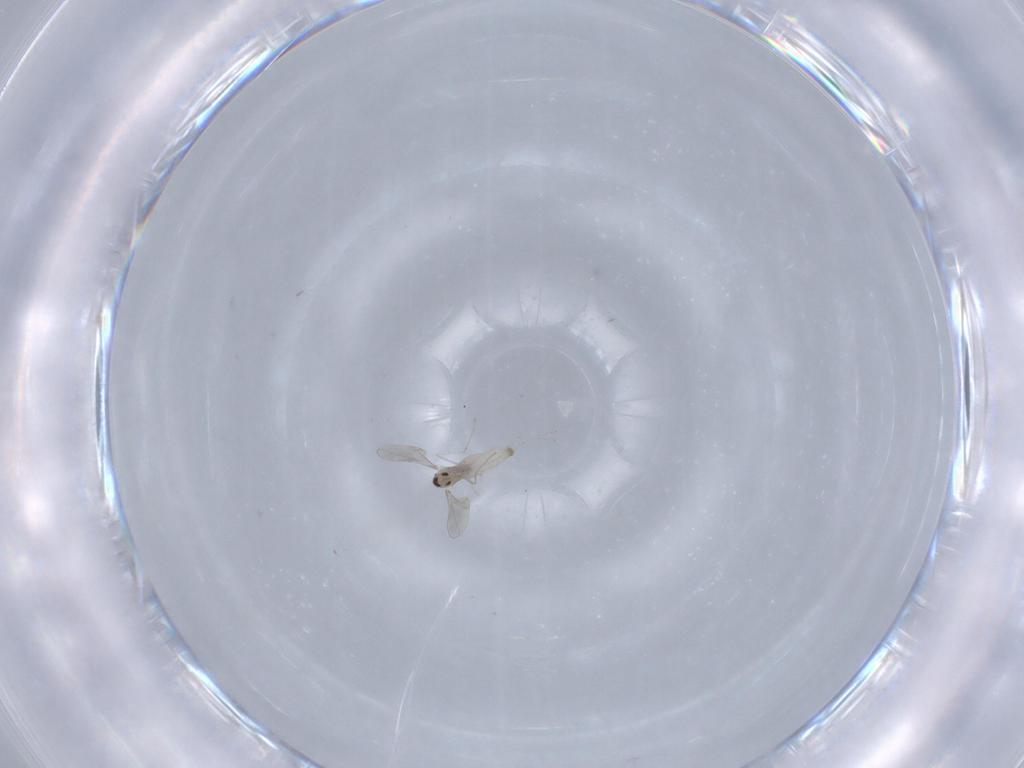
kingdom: Animalia
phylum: Arthropoda
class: Insecta
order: Diptera
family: Cecidomyiidae
